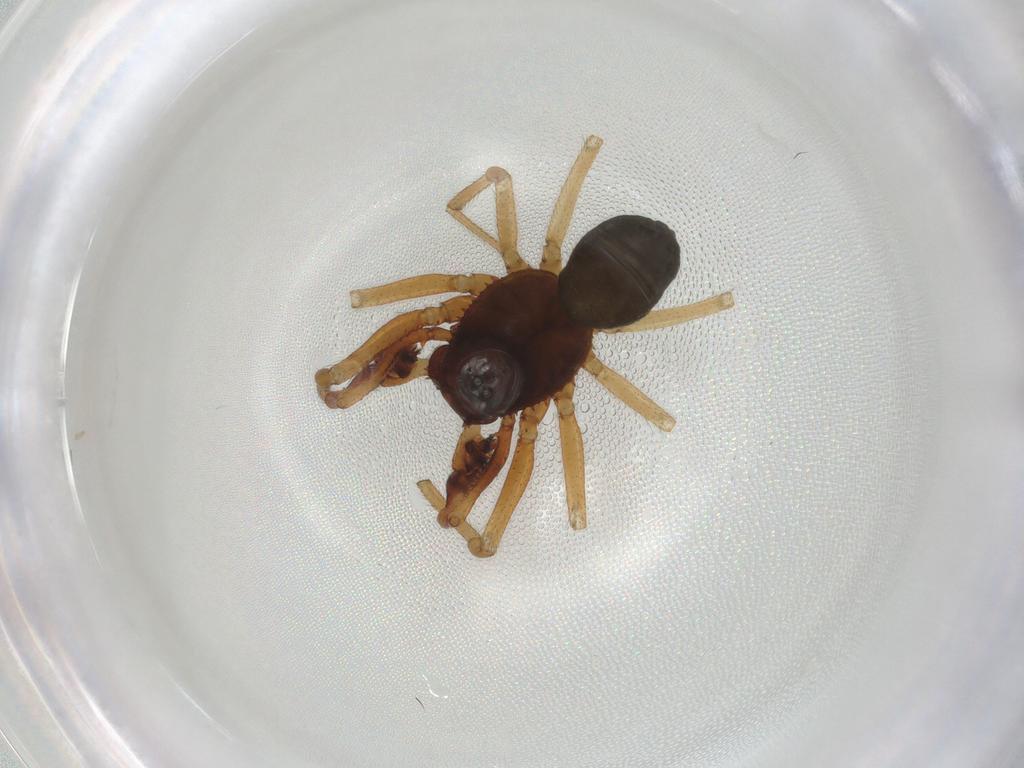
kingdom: Animalia
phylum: Arthropoda
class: Arachnida
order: Araneae
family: Linyphiidae
